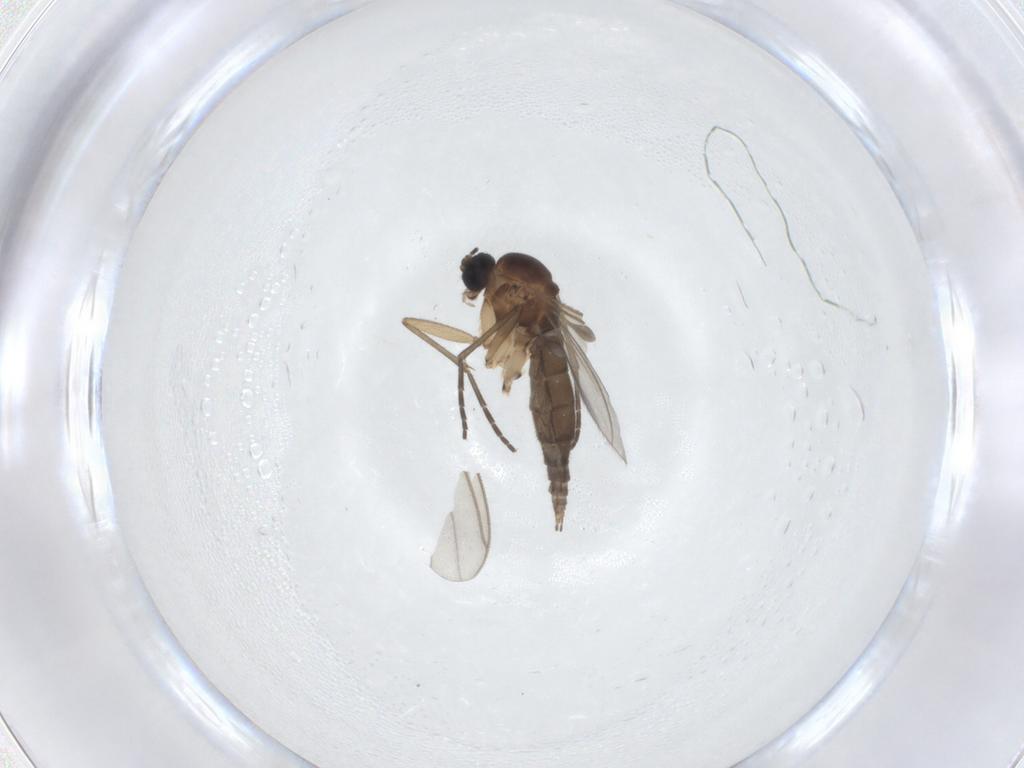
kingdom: Animalia
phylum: Arthropoda
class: Insecta
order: Diptera
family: Sciaridae
